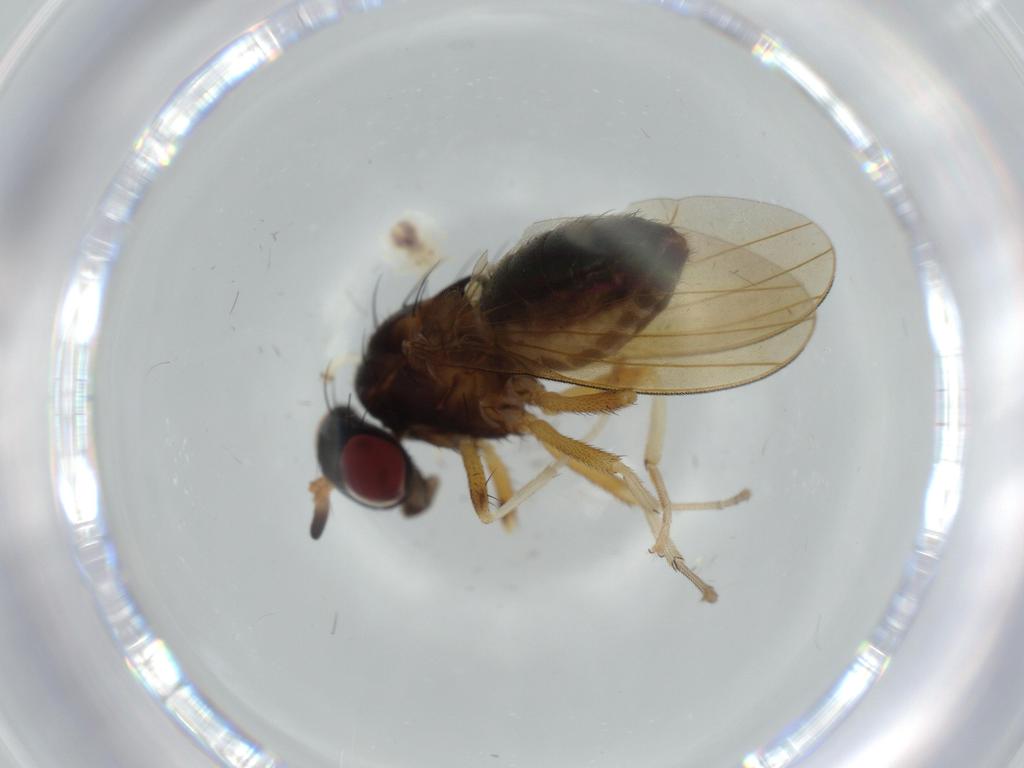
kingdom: Animalia
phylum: Arthropoda
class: Insecta
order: Diptera
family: Lauxaniidae
